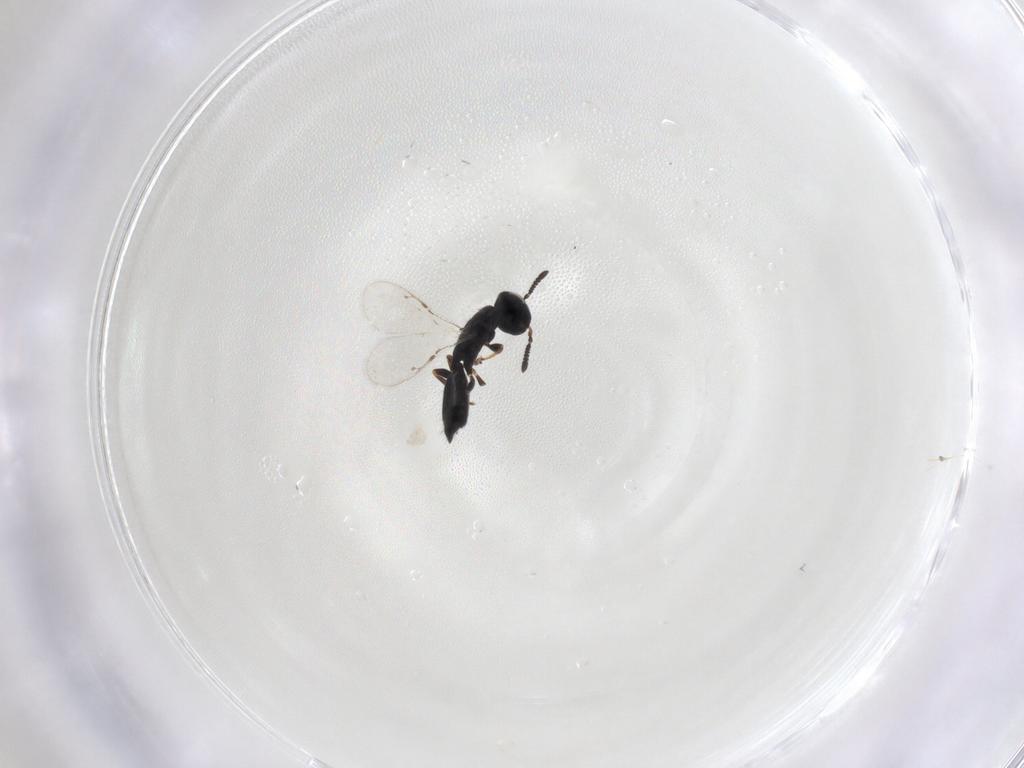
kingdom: Animalia
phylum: Arthropoda
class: Insecta
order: Hymenoptera
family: Pteromalidae
